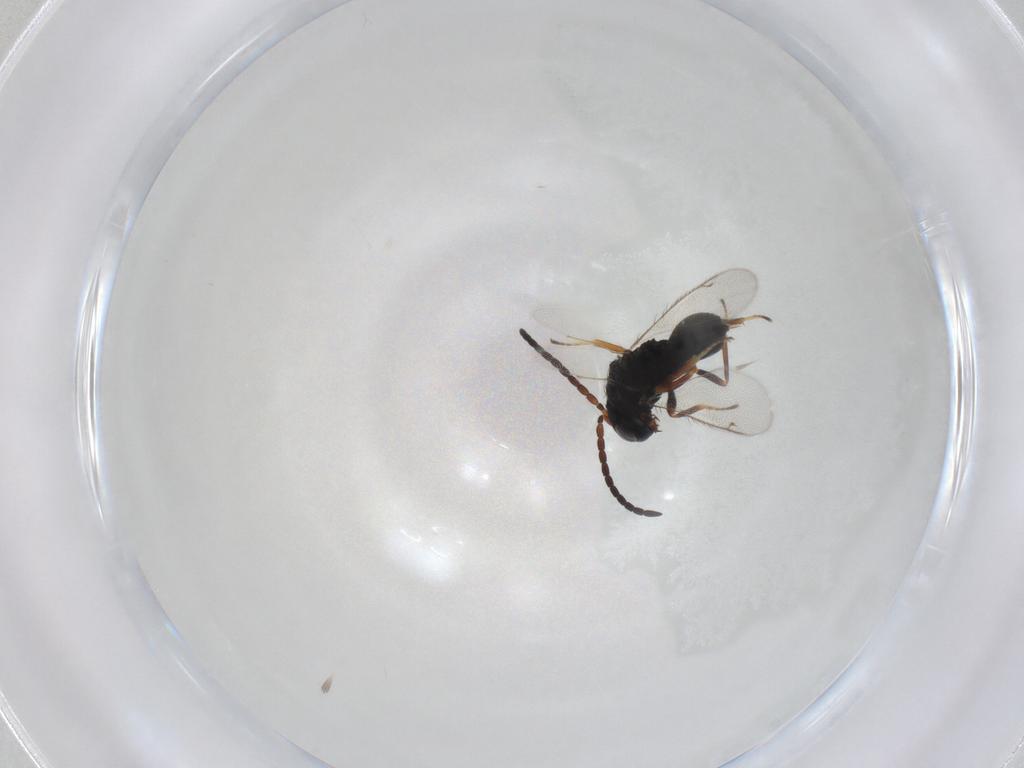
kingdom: Animalia
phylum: Arthropoda
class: Insecta
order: Hymenoptera
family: Ichneumonidae
